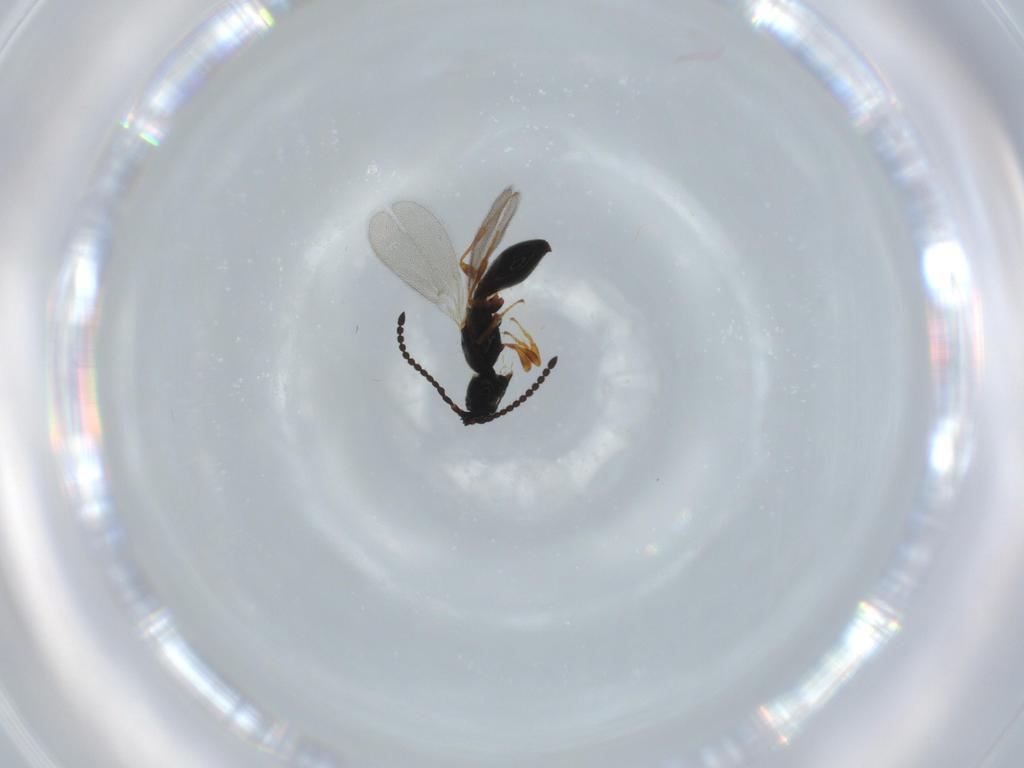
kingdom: Animalia
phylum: Arthropoda
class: Insecta
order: Hymenoptera
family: Diapriidae
